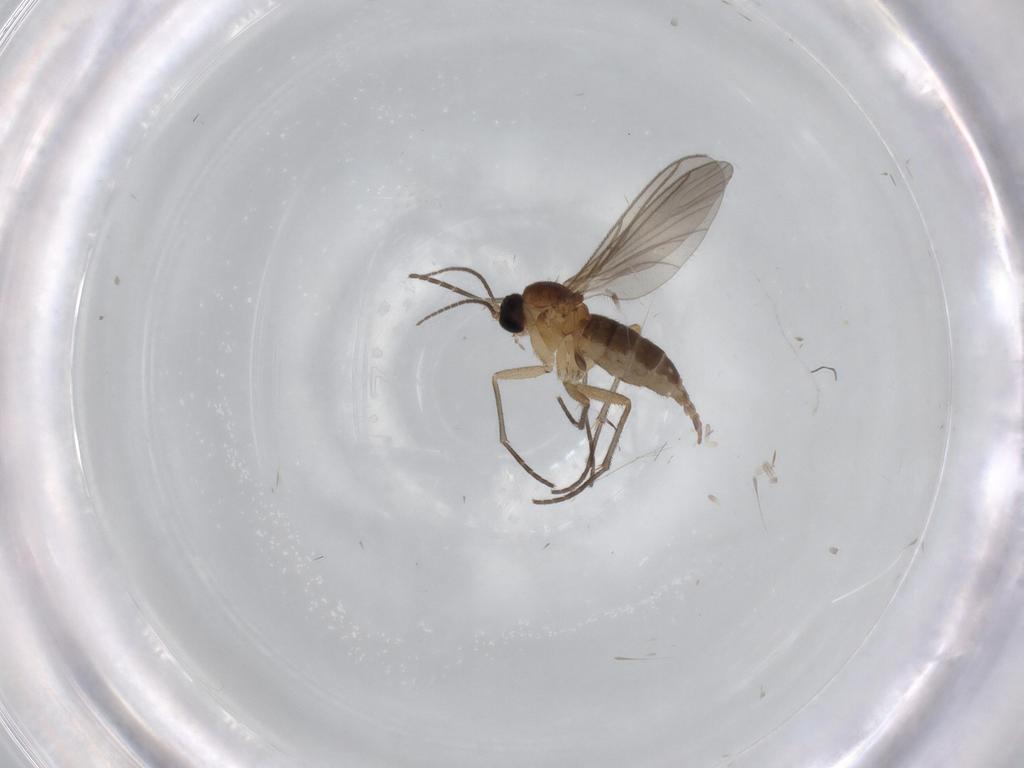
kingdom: Animalia
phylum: Arthropoda
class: Insecta
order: Diptera
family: Sciaridae
